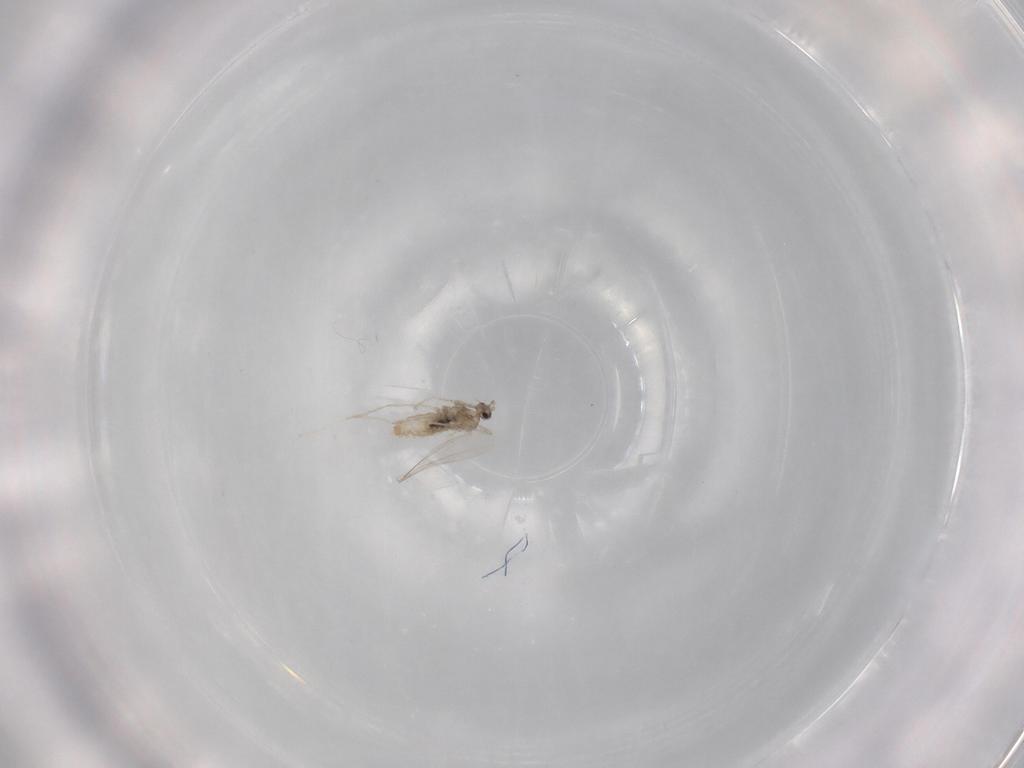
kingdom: Animalia
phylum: Arthropoda
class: Insecta
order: Diptera
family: Cecidomyiidae
